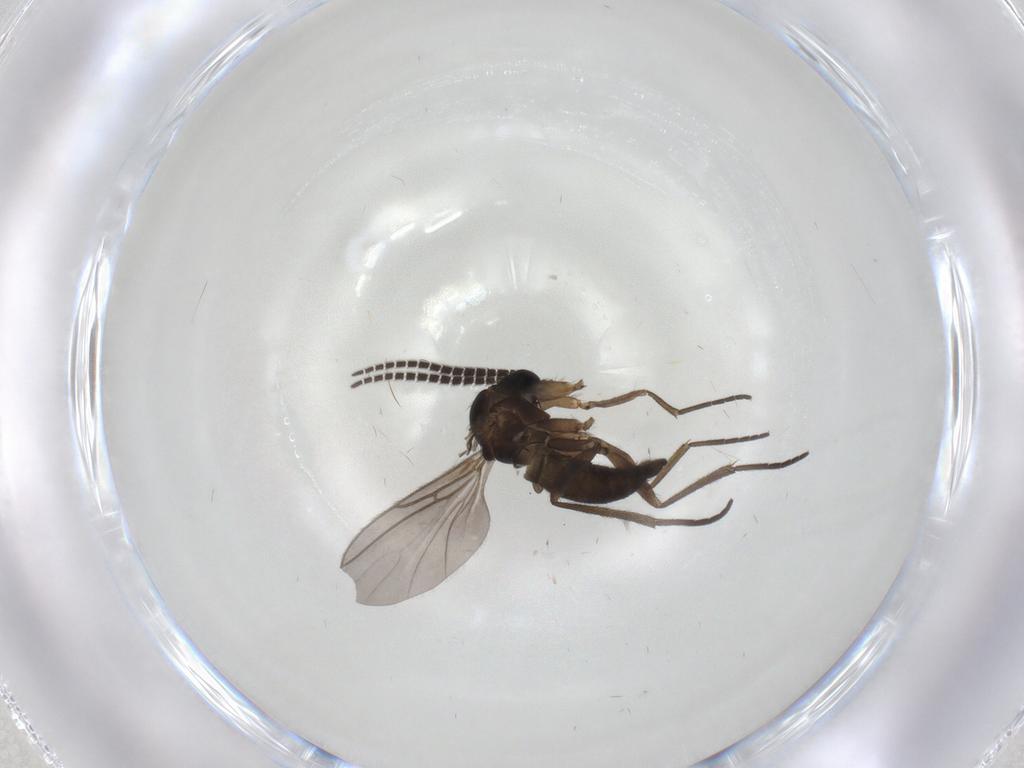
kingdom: Animalia
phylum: Arthropoda
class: Insecta
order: Diptera
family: Sciaridae
